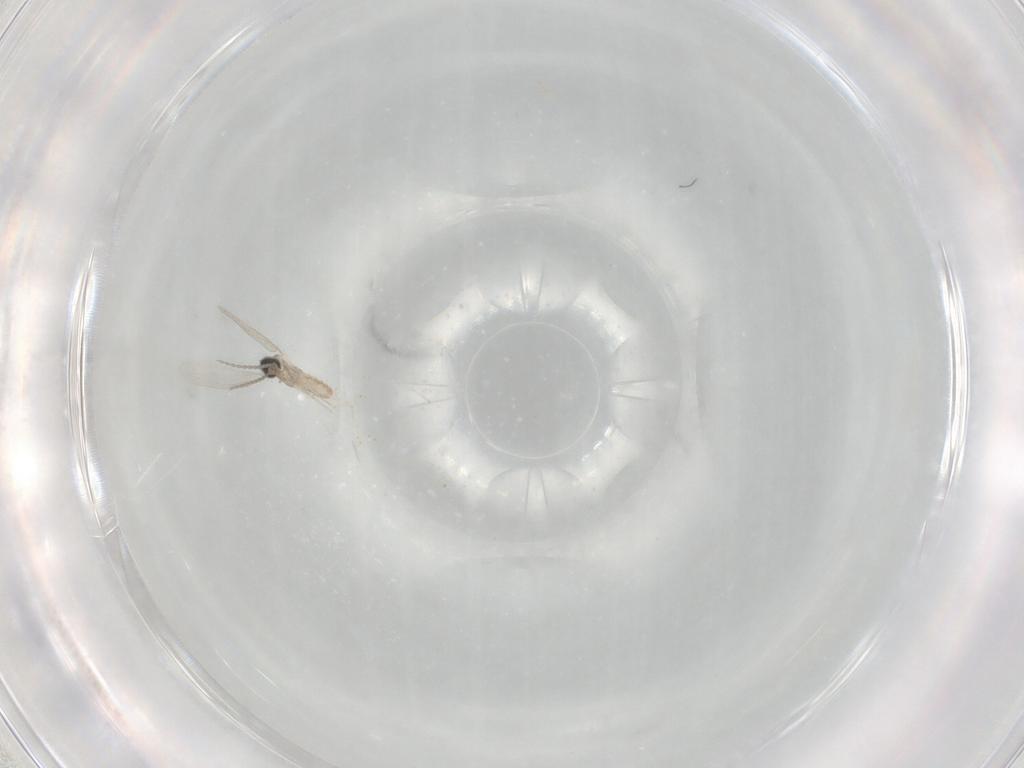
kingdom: Animalia
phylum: Arthropoda
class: Insecta
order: Diptera
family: Cecidomyiidae
